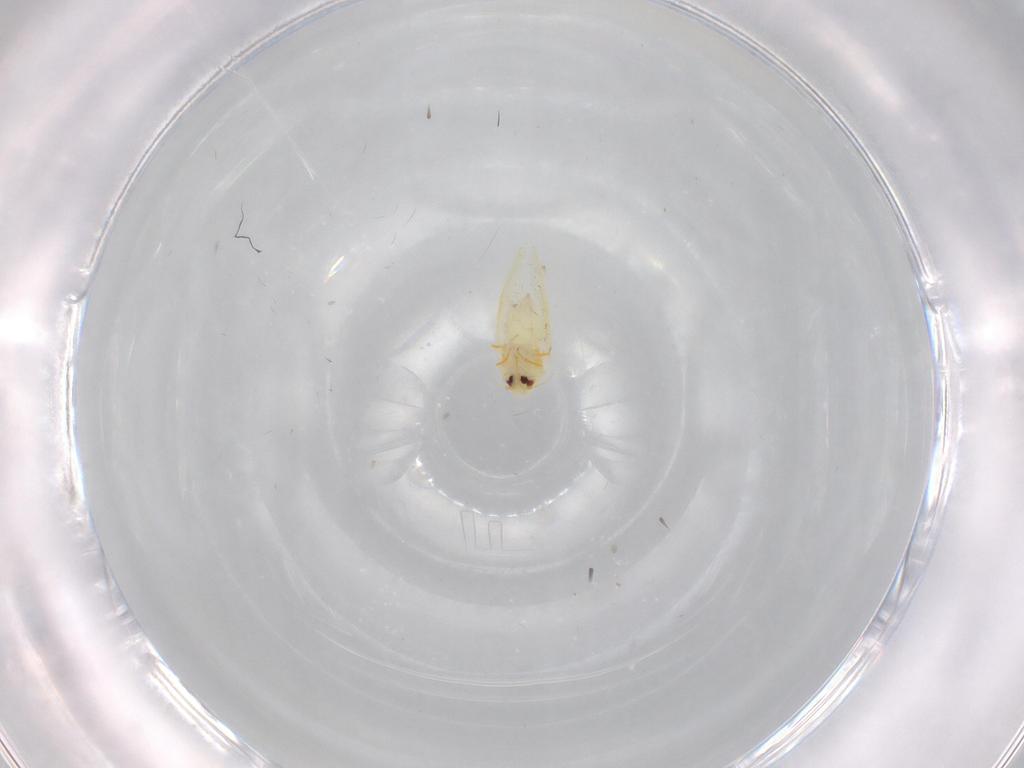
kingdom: Animalia
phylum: Arthropoda
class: Insecta
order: Hemiptera
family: Aleyrodidae
